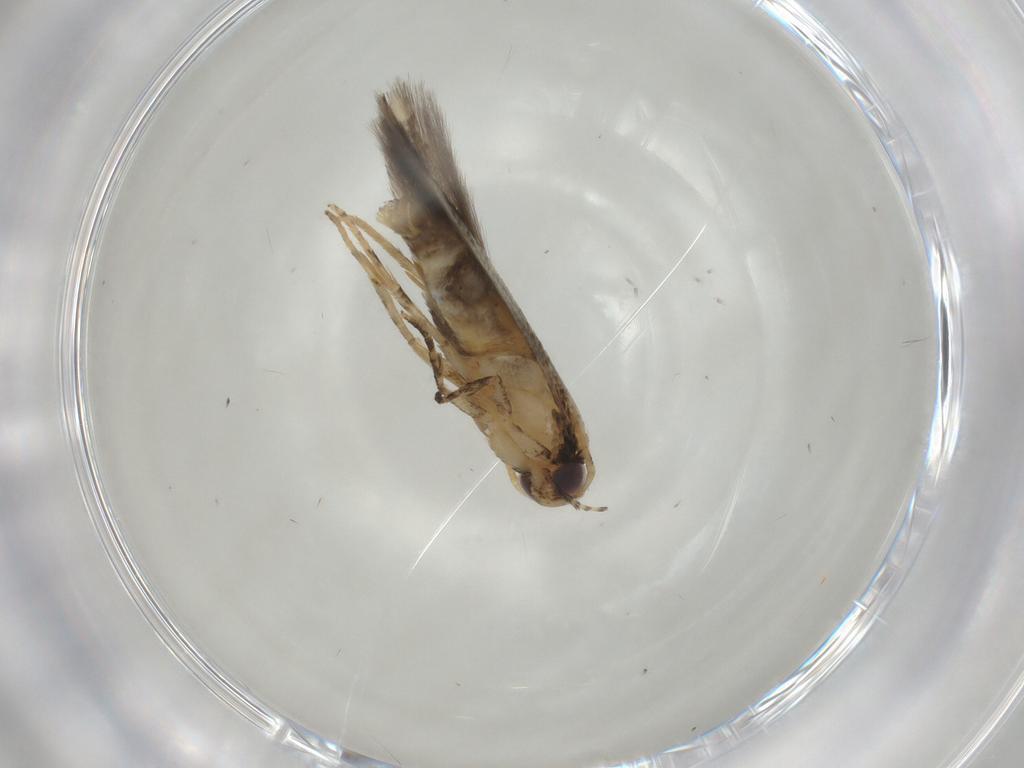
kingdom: Animalia
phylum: Arthropoda
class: Insecta
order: Lepidoptera
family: Autostichidae
